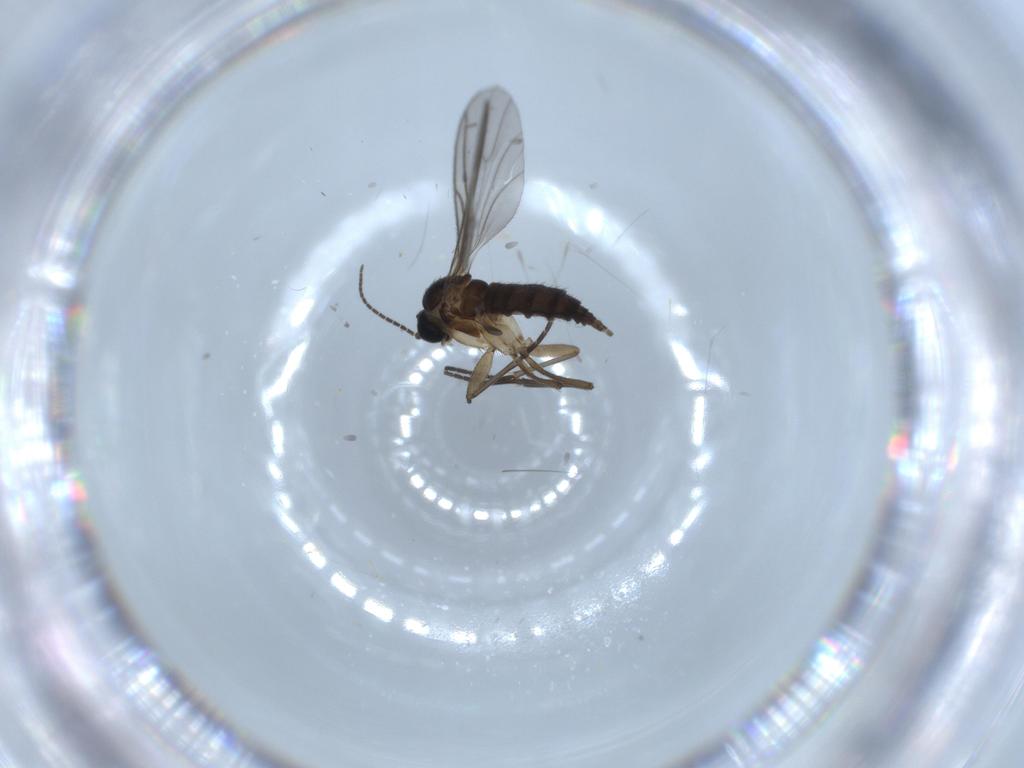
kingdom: Animalia
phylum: Arthropoda
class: Insecta
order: Diptera
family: Sciaridae
